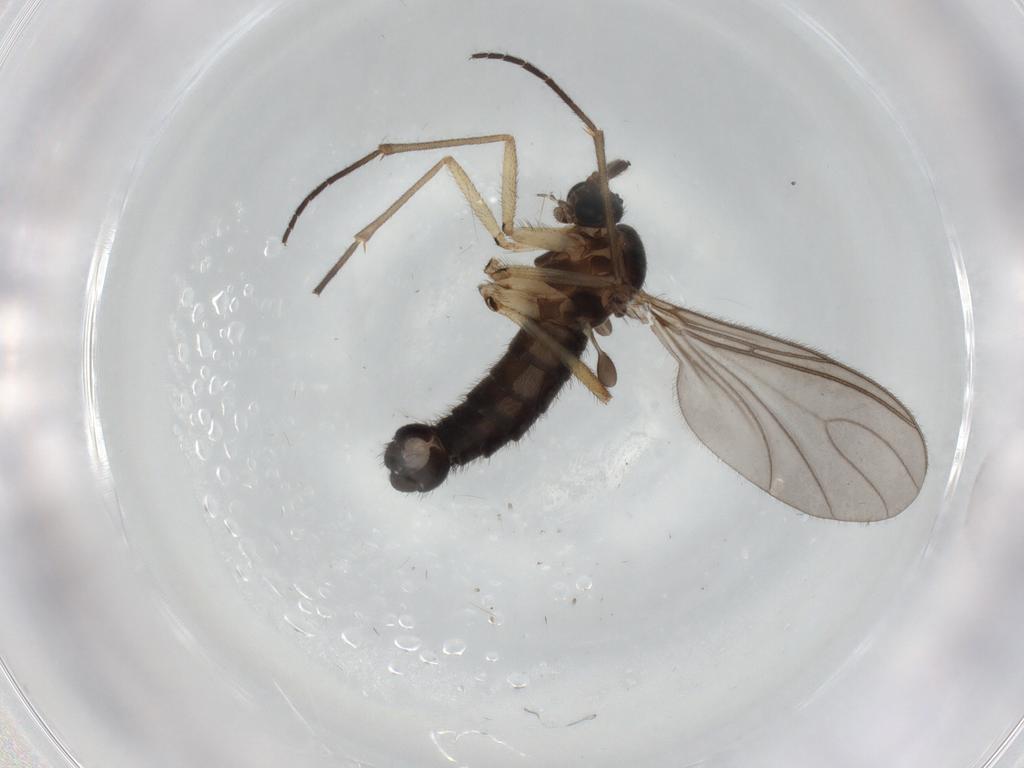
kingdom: Animalia
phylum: Arthropoda
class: Insecta
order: Diptera
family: Sciaridae
